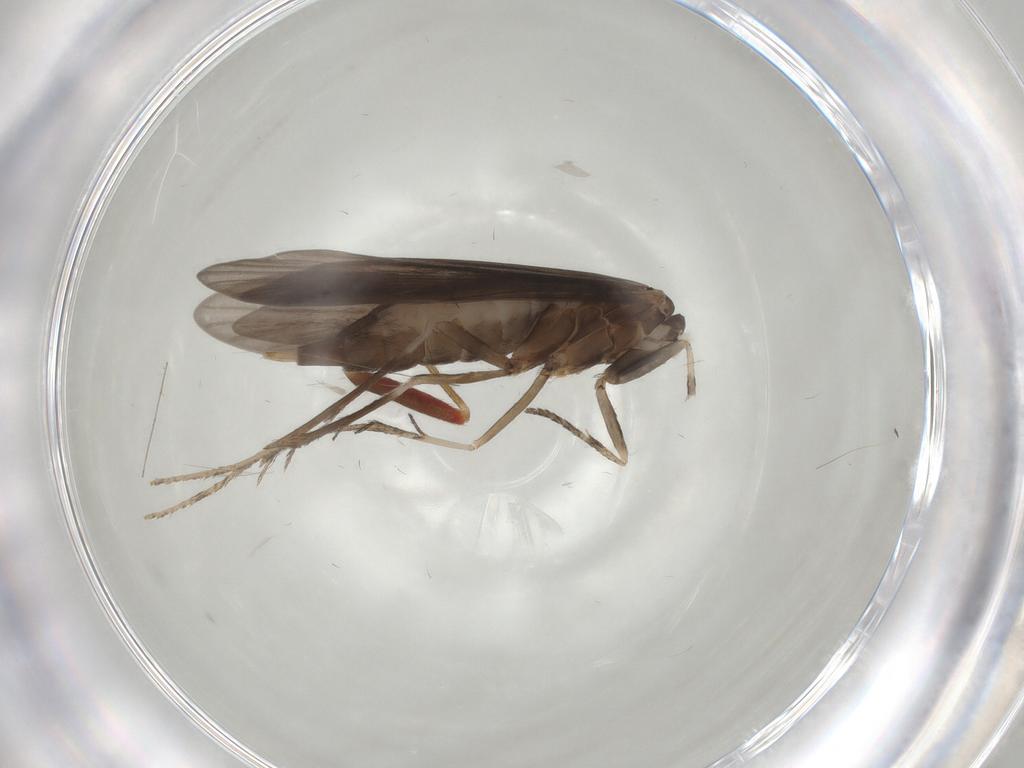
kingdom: Animalia
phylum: Arthropoda
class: Insecta
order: Trichoptera
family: Xiphocentronidae
